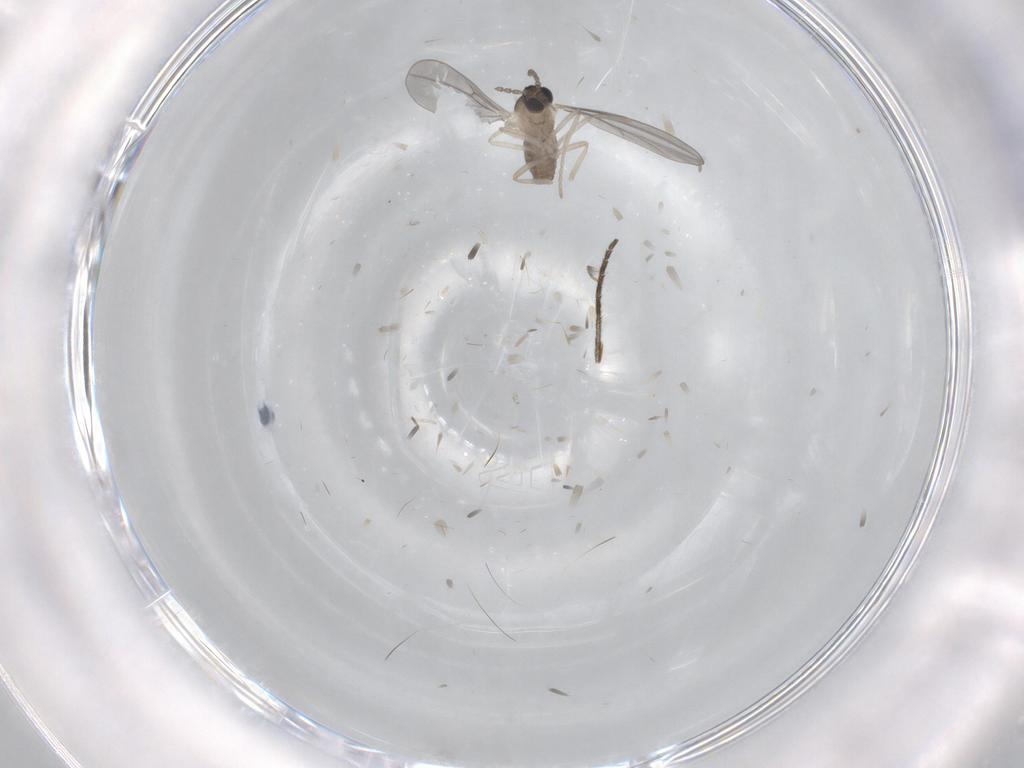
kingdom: Animalia
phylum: Arthropoda
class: Insecta
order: Diptera
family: Cecidomyiidae
